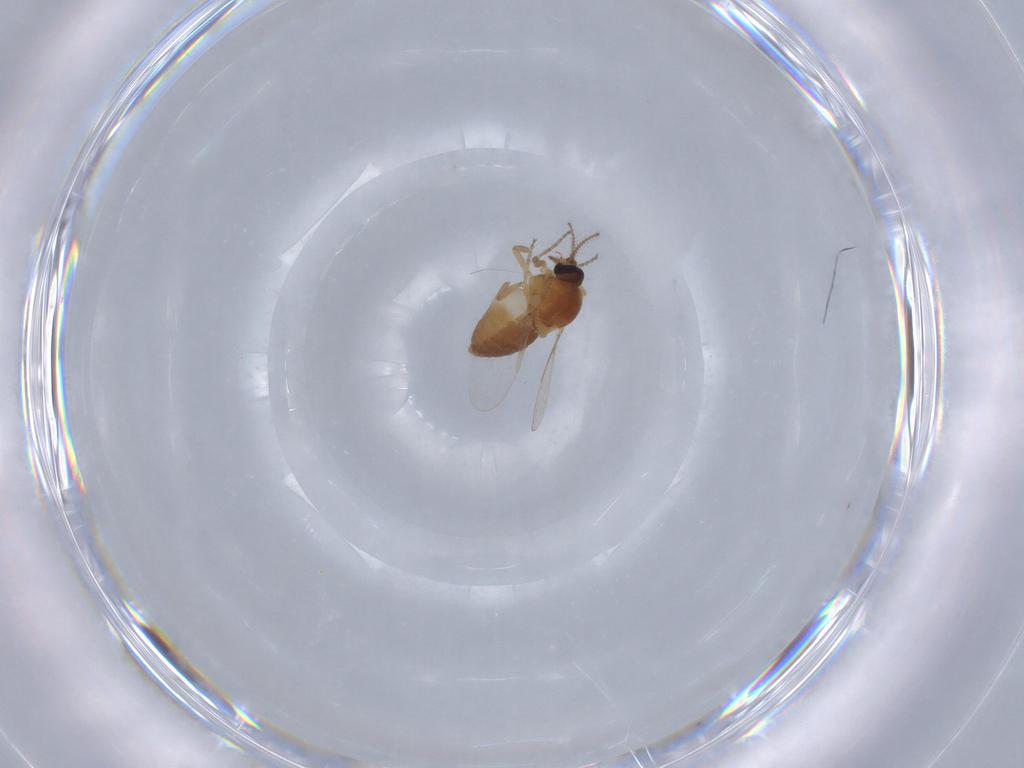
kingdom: Animalia
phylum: Arthropoda
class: Insecta
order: Diptera
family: Ceratopogonidae
